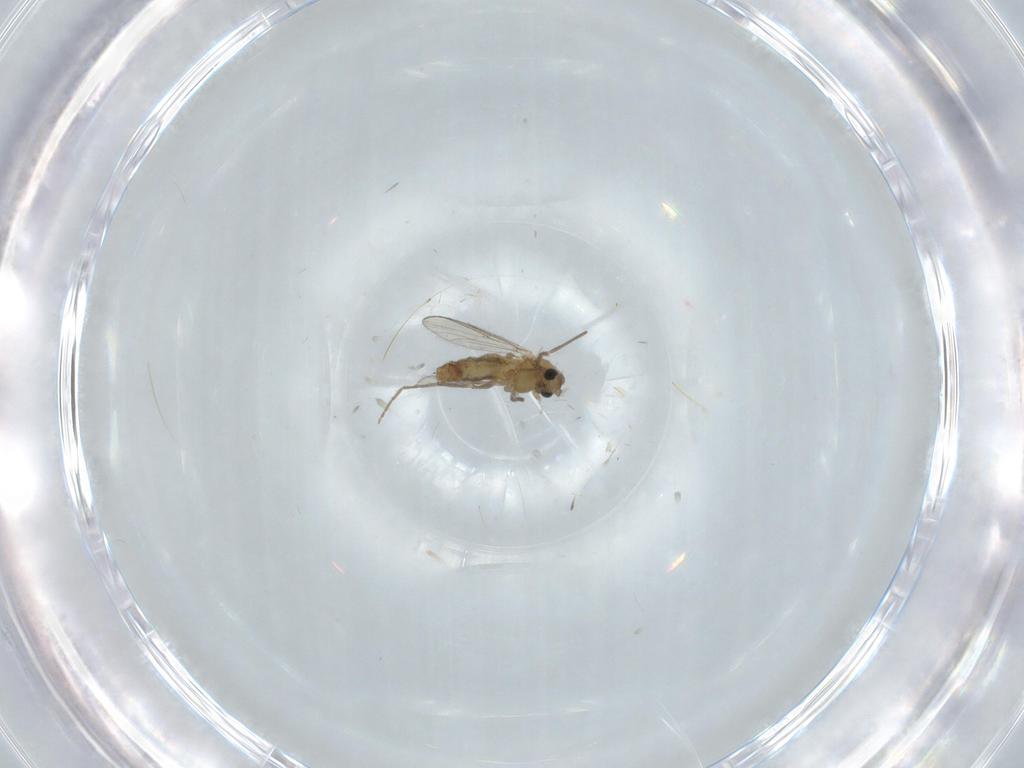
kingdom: Animalia
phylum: Arthropoda
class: Insecta
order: Diptera
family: Chironomidae
